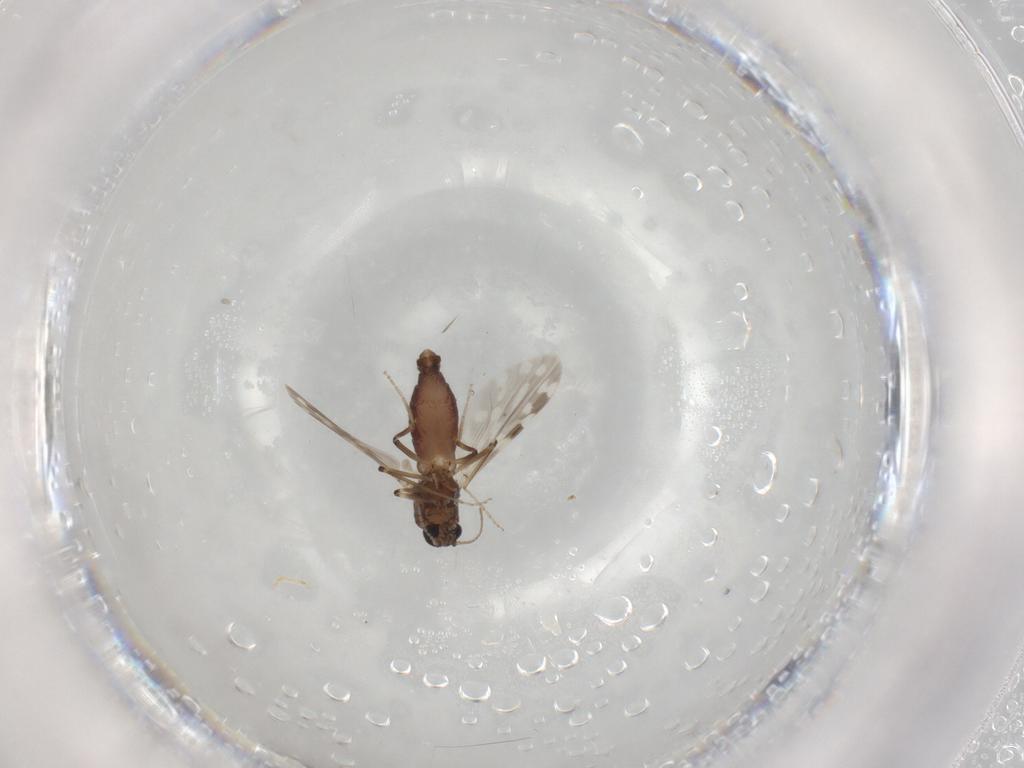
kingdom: Animalia
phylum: Arthropoda
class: Insecta
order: Diptera
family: Ceratopogonidae
